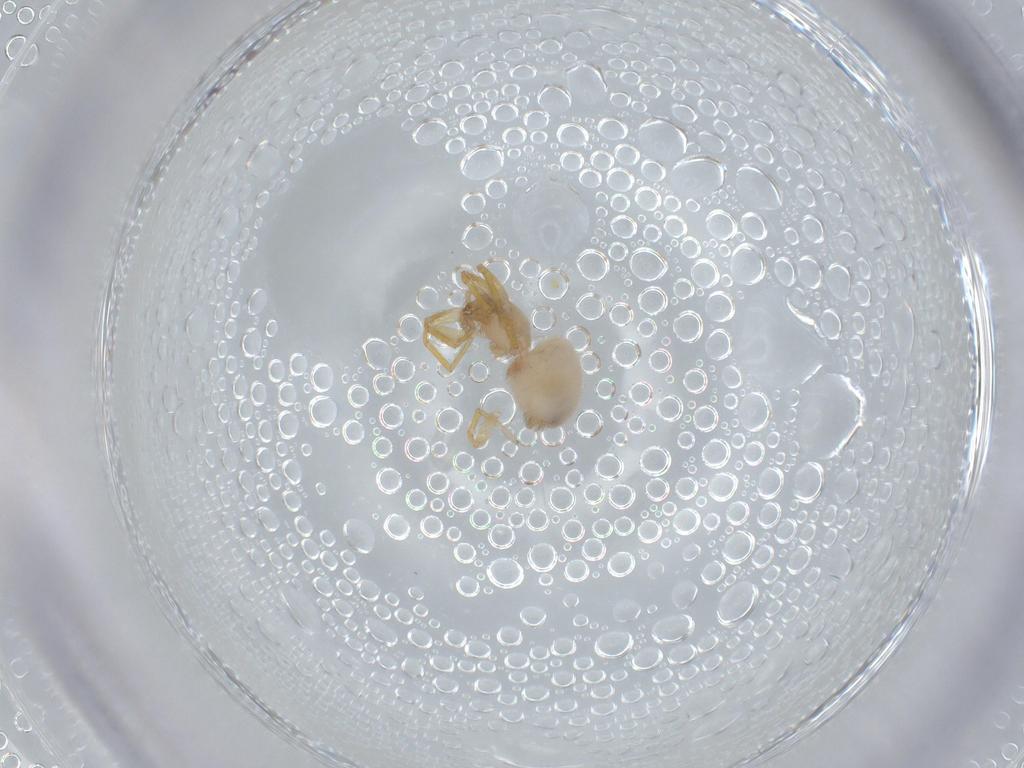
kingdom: Animalia
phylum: Arthropoda
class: Arachnida
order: Araneae
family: Oonopidae
